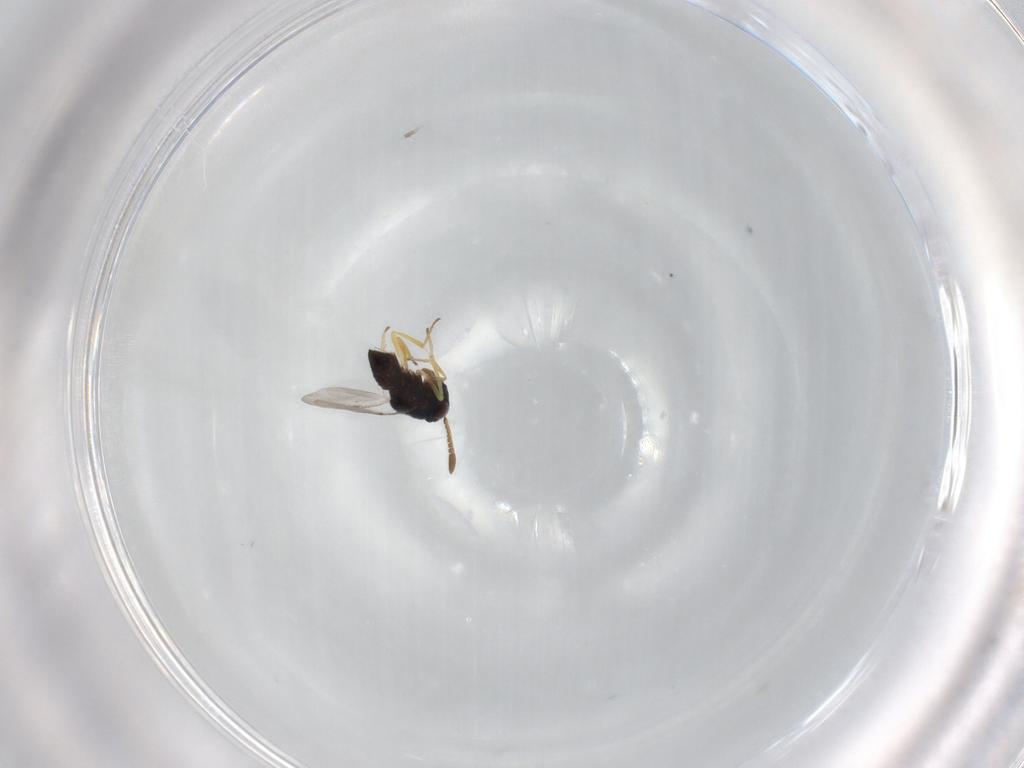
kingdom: Animalia
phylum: Arthropoda
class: Insecta
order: Hymenoptera
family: Encyrtidae
